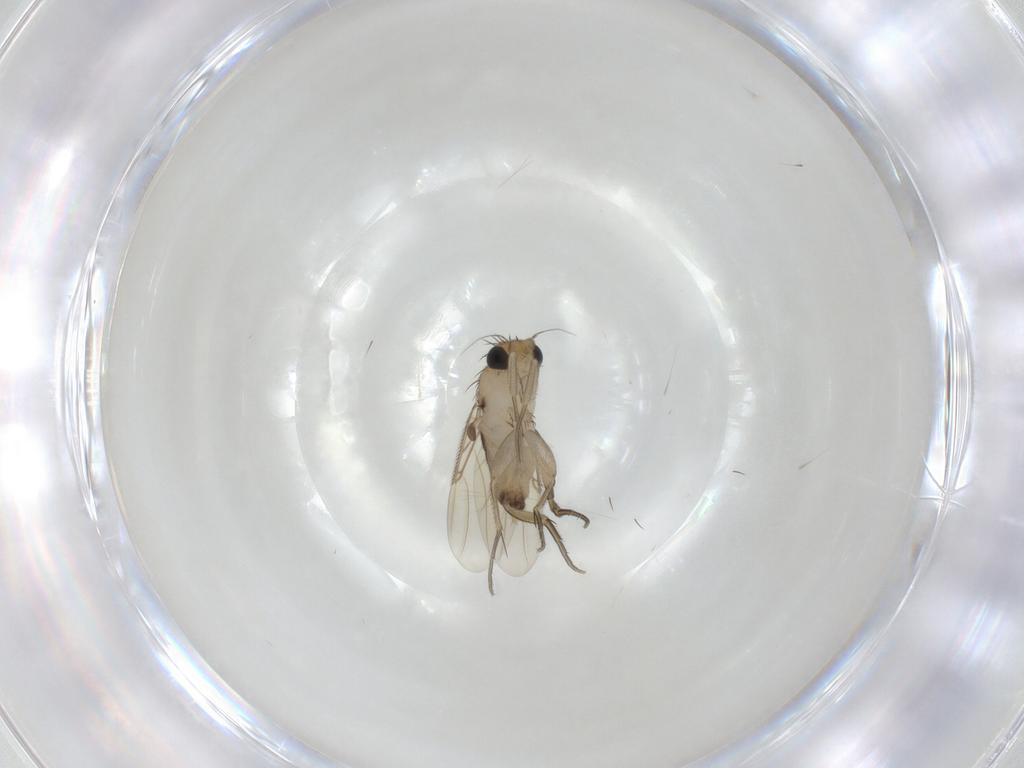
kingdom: Animalia
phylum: Arthropoda
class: Insecta
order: Diptera
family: Phoridae
